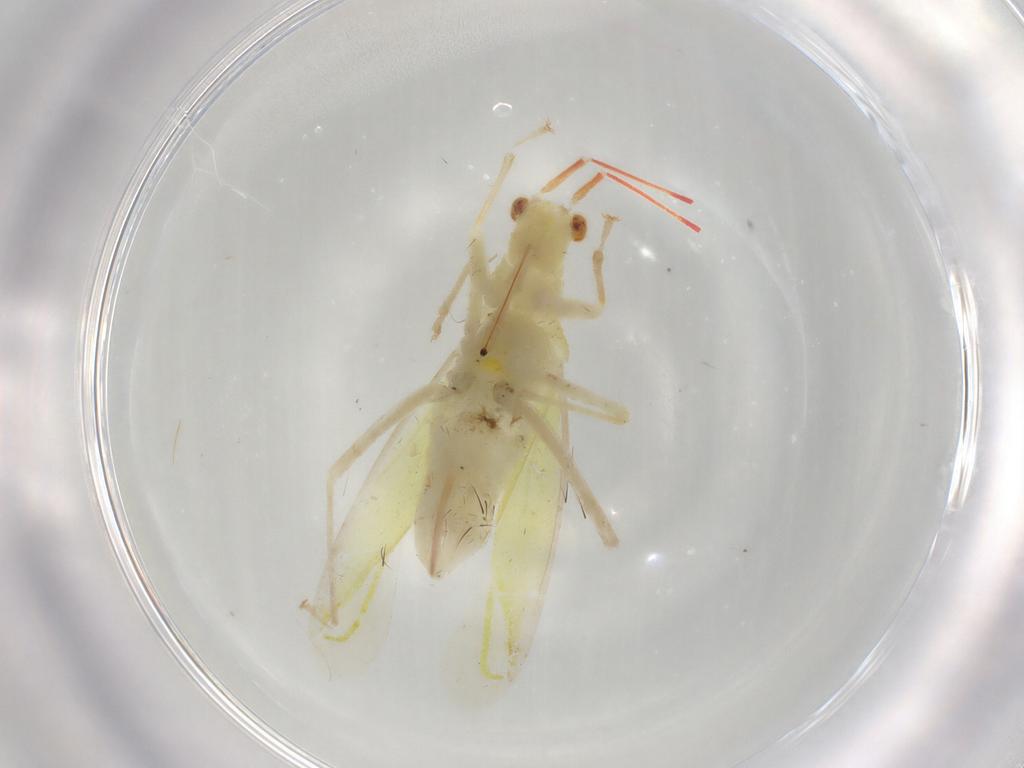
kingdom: Animalia
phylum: Arthropoda
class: Insecta
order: Hemiptera
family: Miridae
